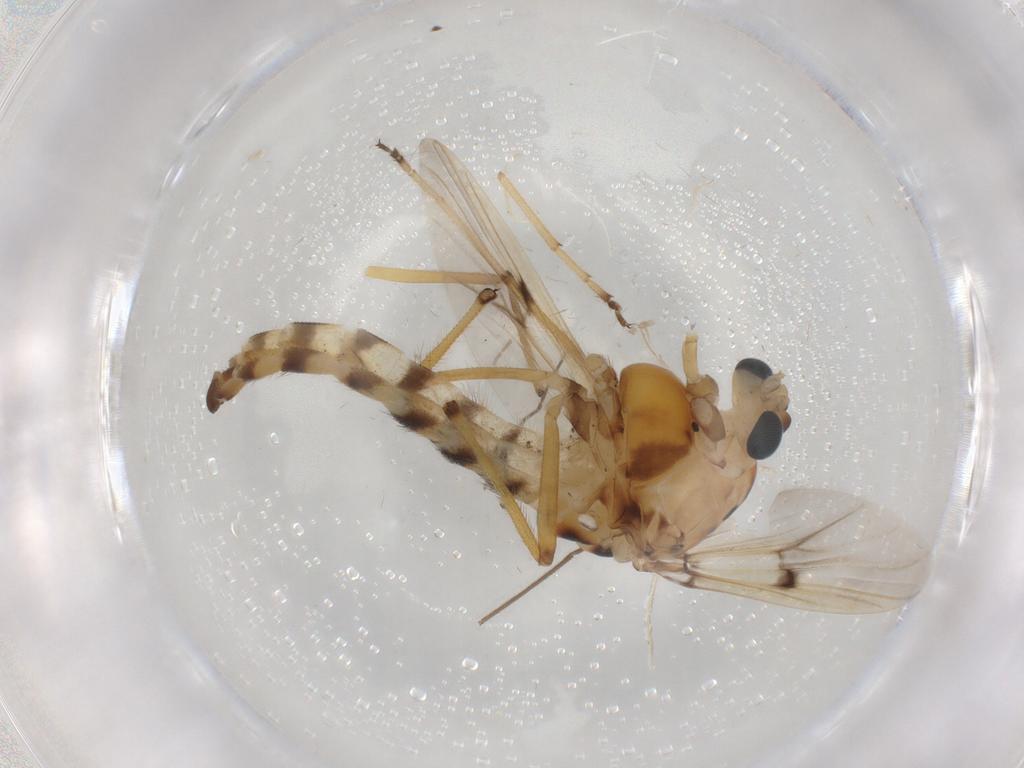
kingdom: Animalia
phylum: Arthropoda
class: Insecta
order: Diptera
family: Chironomidae
